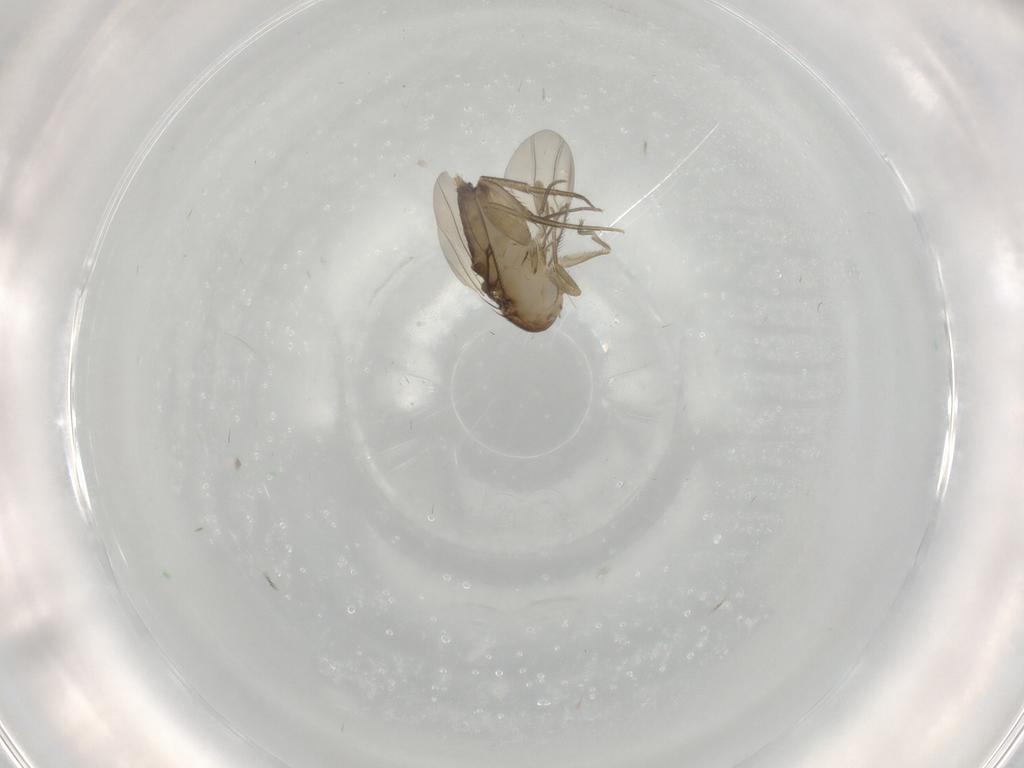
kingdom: Animalia
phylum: Arthropoda
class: Insecta
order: Diptera
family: Phoridae
